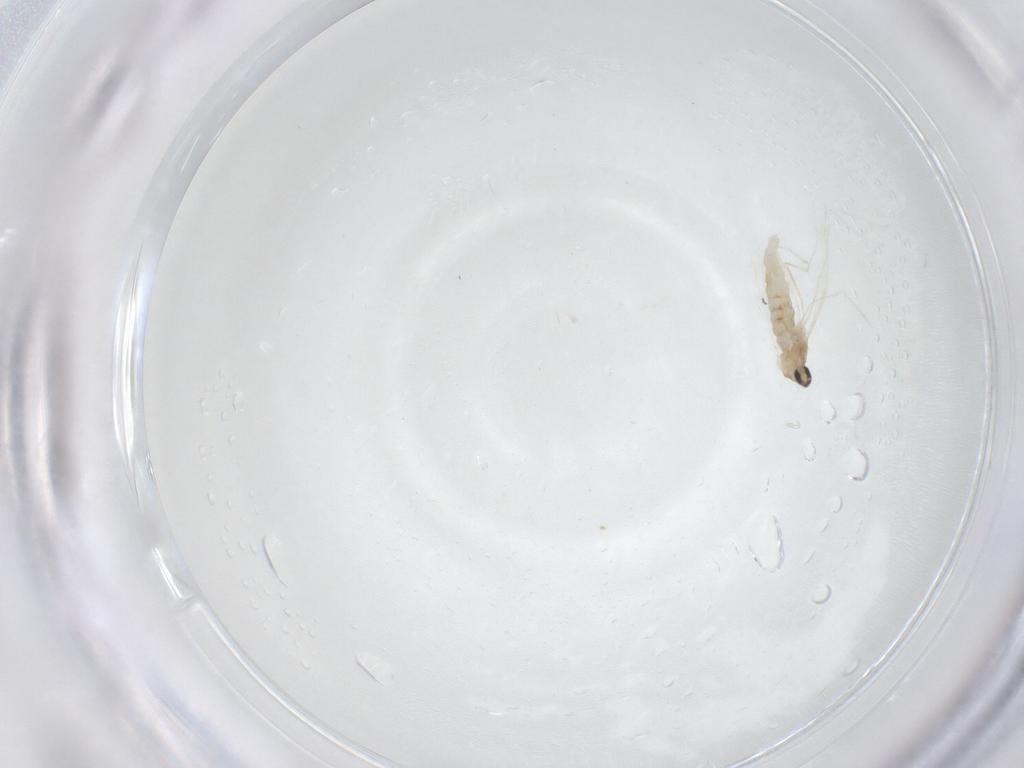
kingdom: Animalia
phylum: Arthropoda
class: Insecta
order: Diptera
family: Cecidomyiidae
